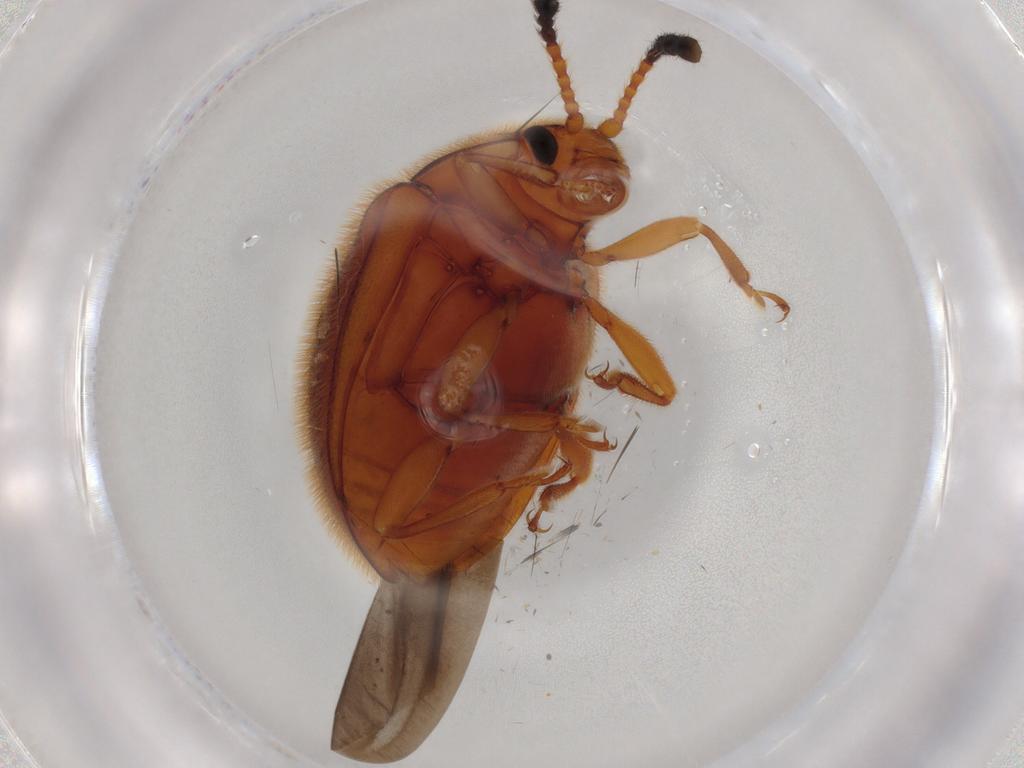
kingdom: Animalia
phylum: Arthropoda
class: Insecta
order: Coleoptera
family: Endomychidae
